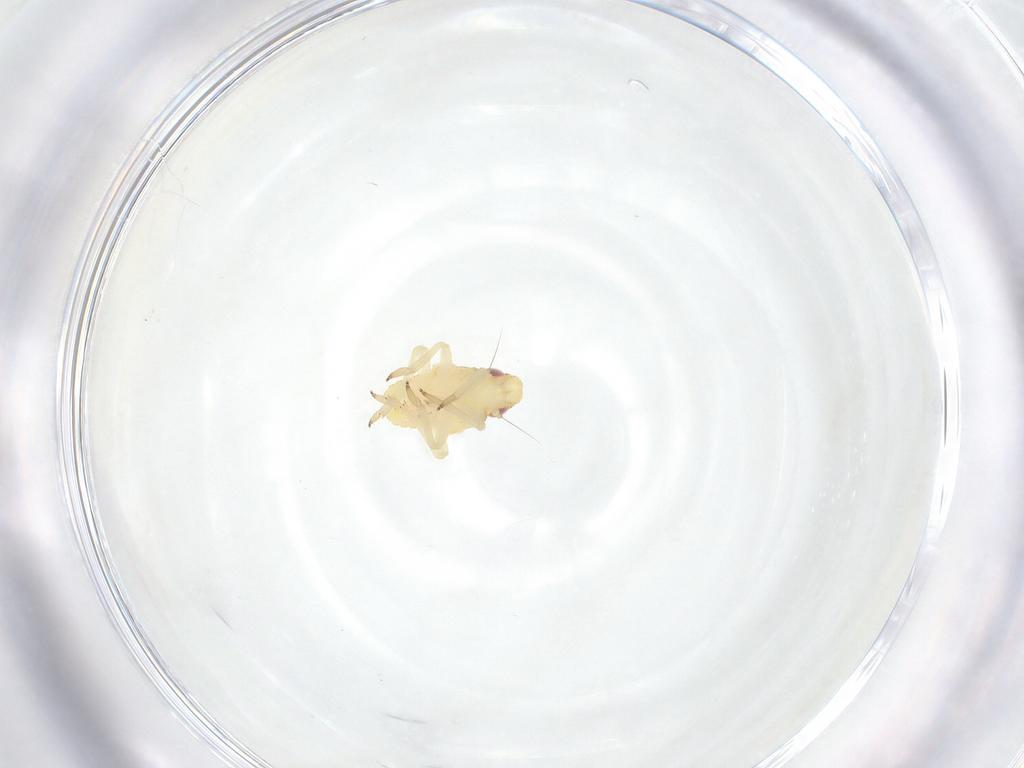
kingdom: Animalia
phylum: Arthropoda
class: Insecta
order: Hemiptera
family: Caliscelidae
